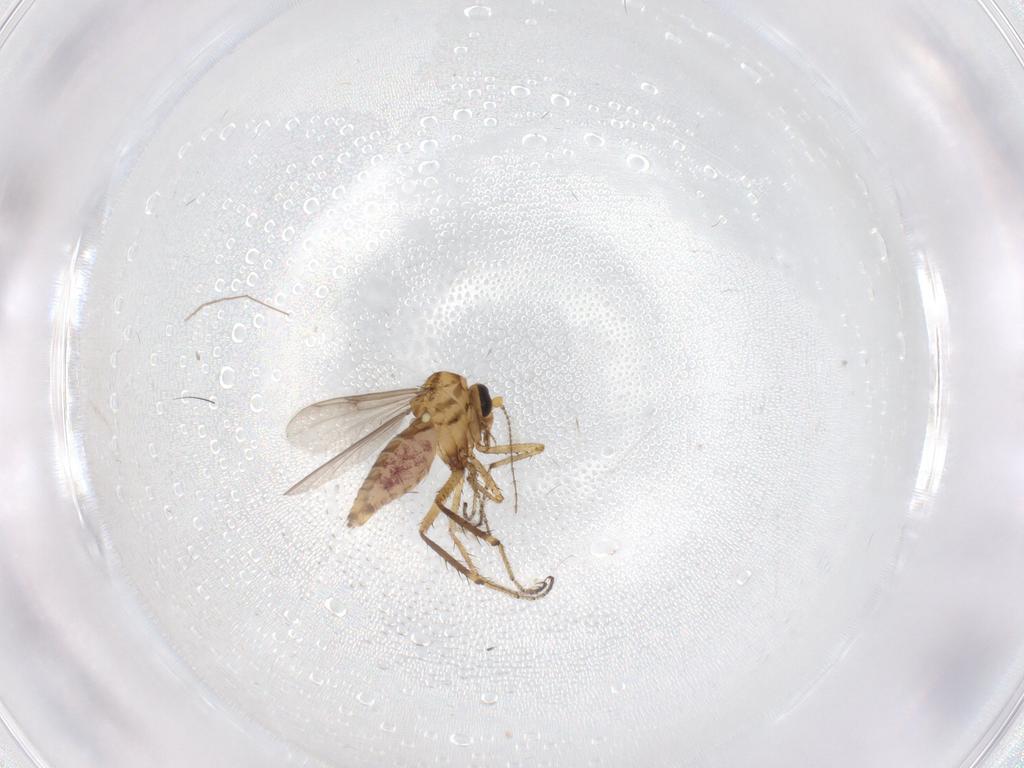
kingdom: Animalia
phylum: Arthropoda
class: Insecta
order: Diptera
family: Chironomidae
